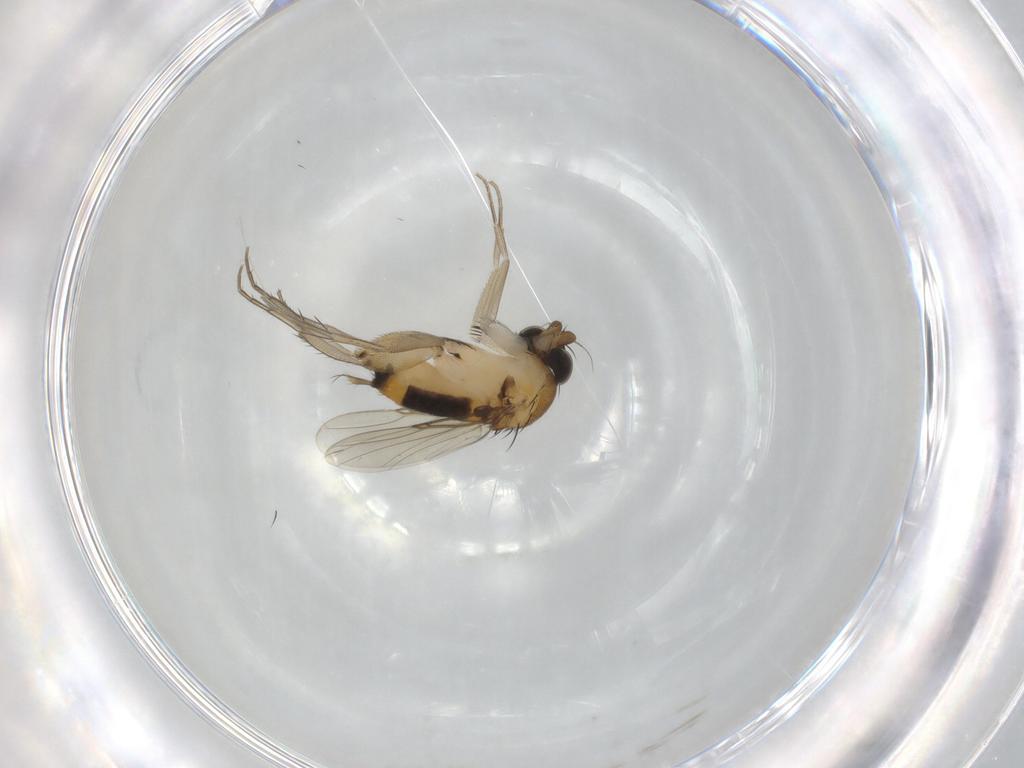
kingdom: Animalia
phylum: Arthropoda
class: Insecta
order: Diptera
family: Phoridae
